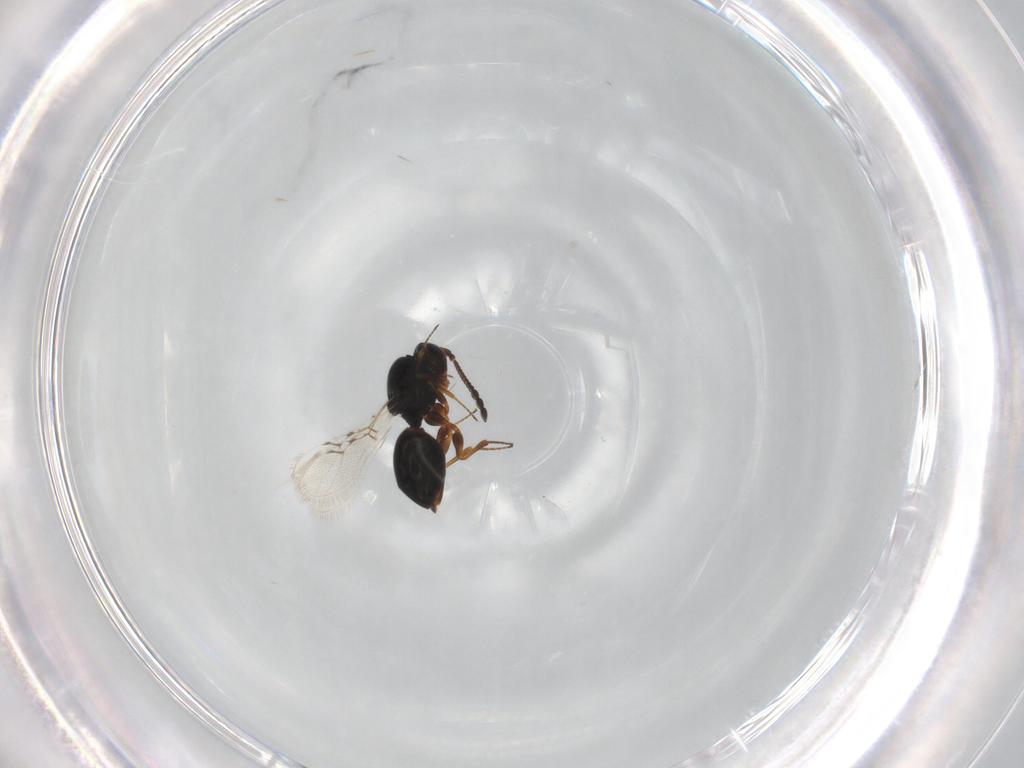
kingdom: Animalia
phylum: Arthropoda
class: Insecta
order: Hymenoptera
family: Figitidae
